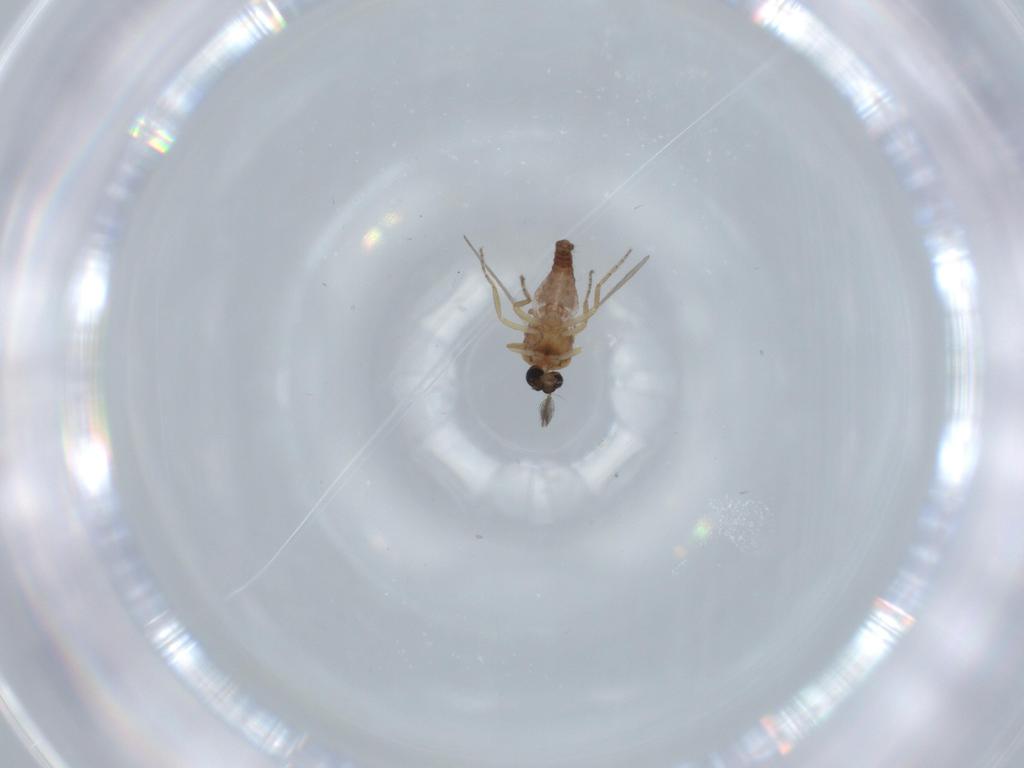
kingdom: Animalia
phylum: Arthropoda
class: Insecta
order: Diptera
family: Ceratopogonidae
